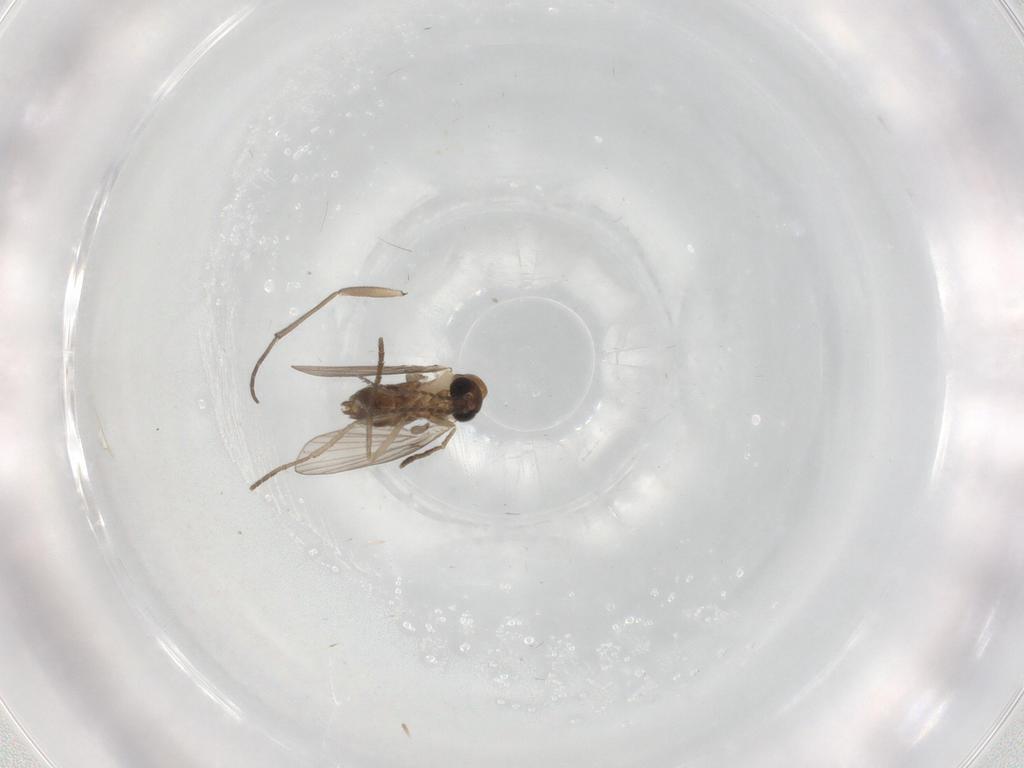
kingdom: Animalia
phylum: Arthropoda
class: Insecta
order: Diptera
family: Psychodidae
